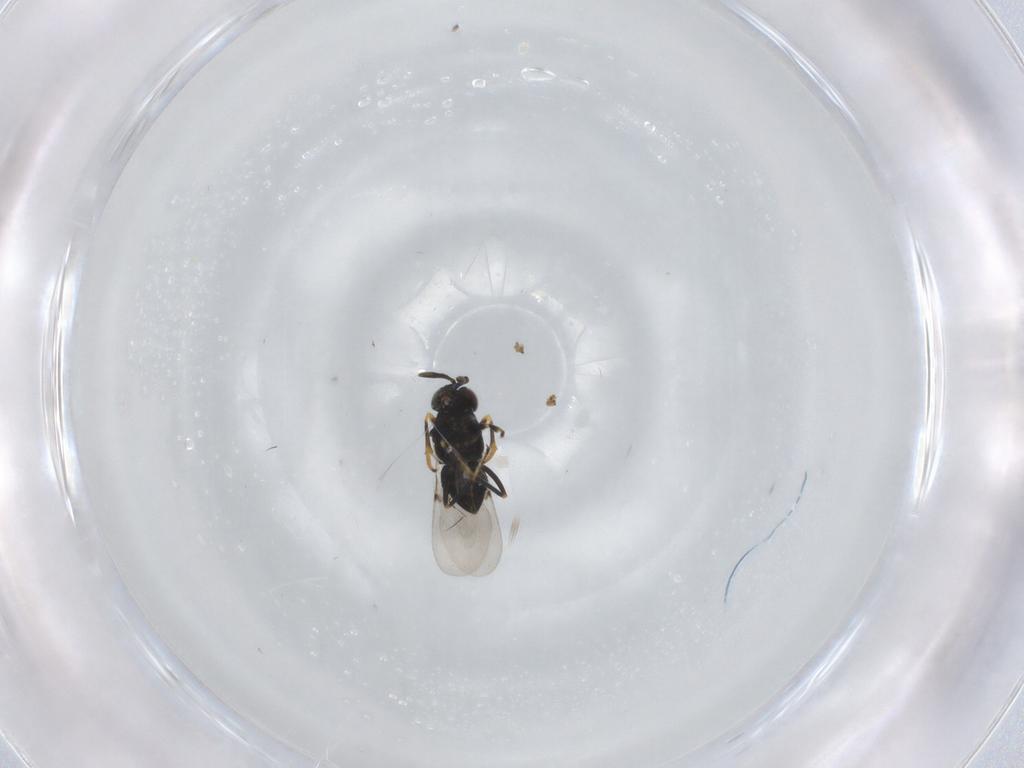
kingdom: Animalia
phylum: Arthropoda
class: Insecta
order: Hymenoptera
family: Encyrtidae
